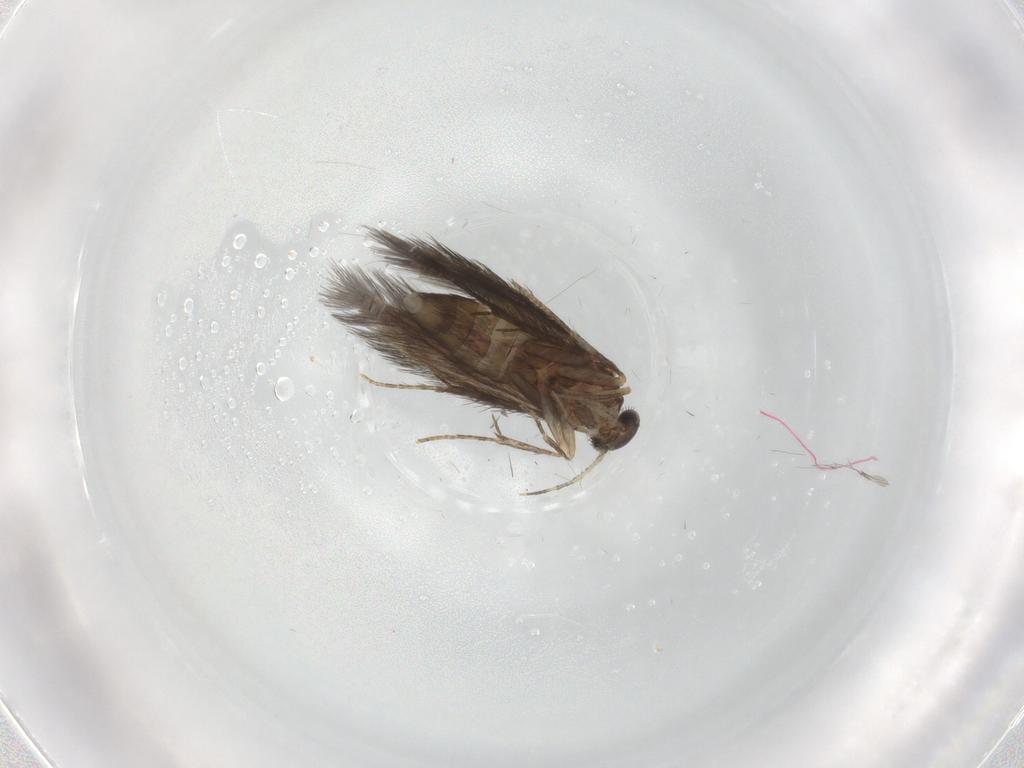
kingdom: Animalia
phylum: Arthropoda
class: Insecta
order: Trichoptera
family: Hydroptilidae
